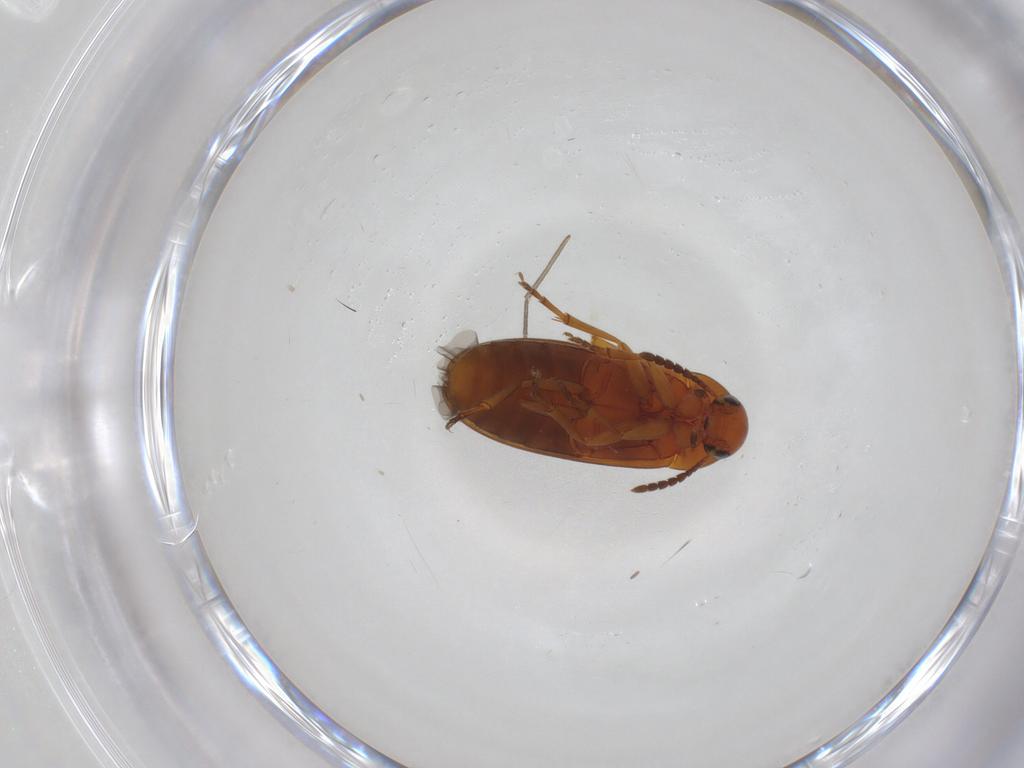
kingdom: Animalia
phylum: Arthropoda
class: Insecta
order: Coleoptera
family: Scraptiidae
